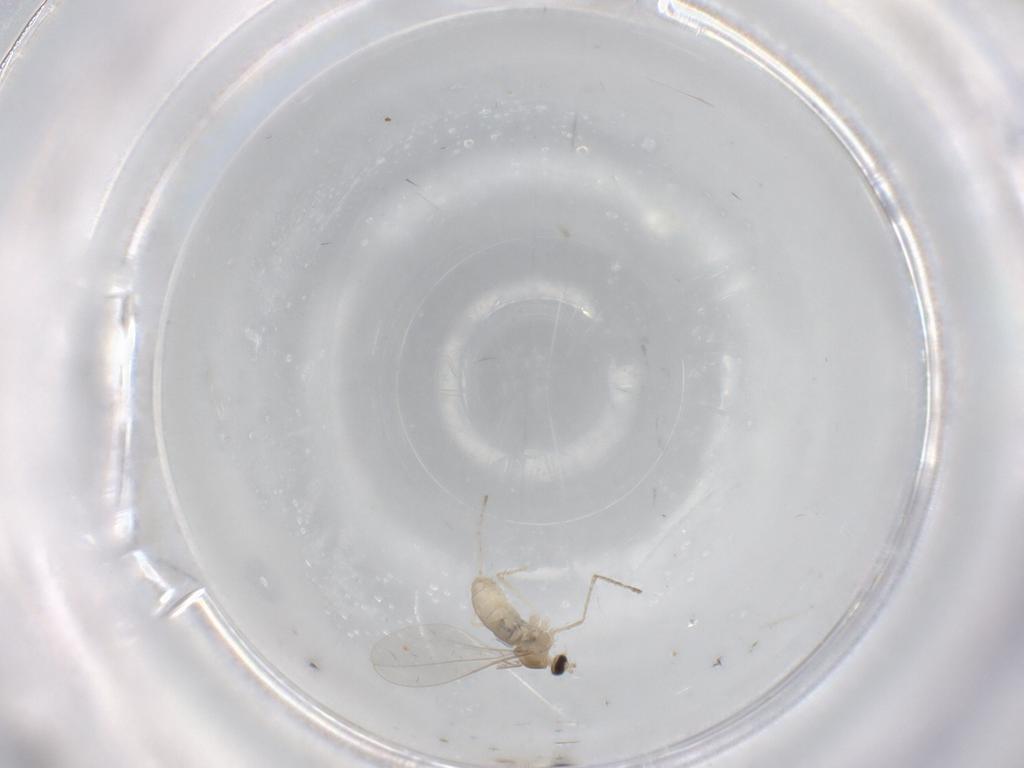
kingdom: Animalia
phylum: Arthropoda
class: Insecta
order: Diptera
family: Cecidomyiidae
